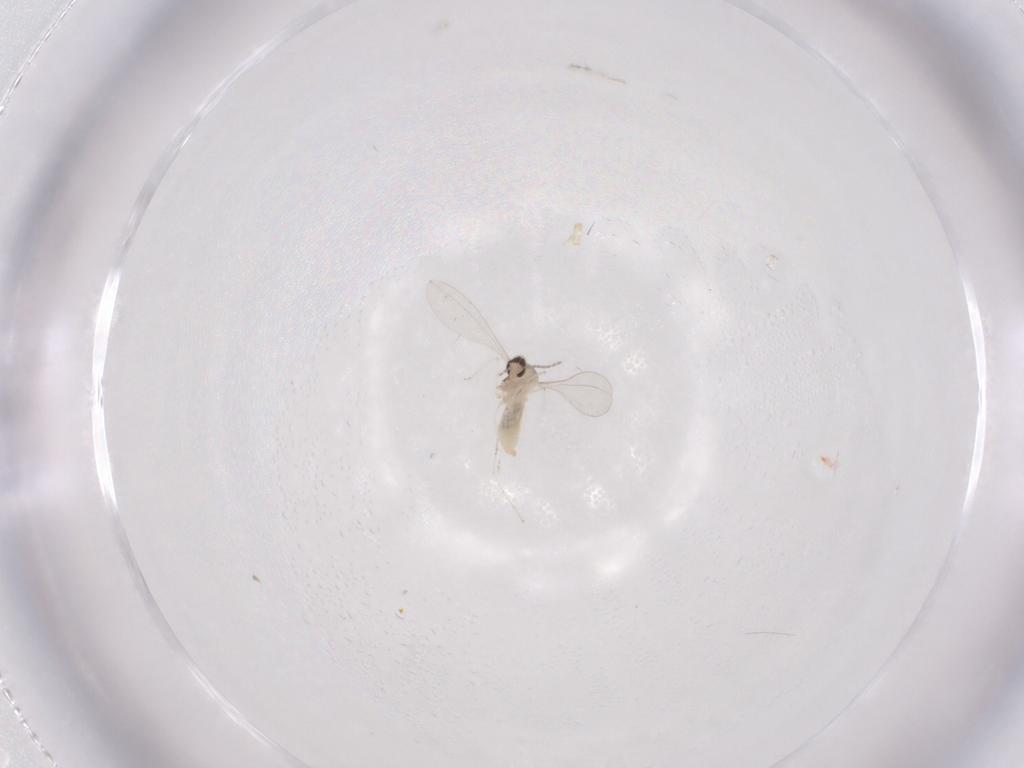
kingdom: Animalia
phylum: Arthropoda
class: Insecta
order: Diptera
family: Cecidomyiidae
